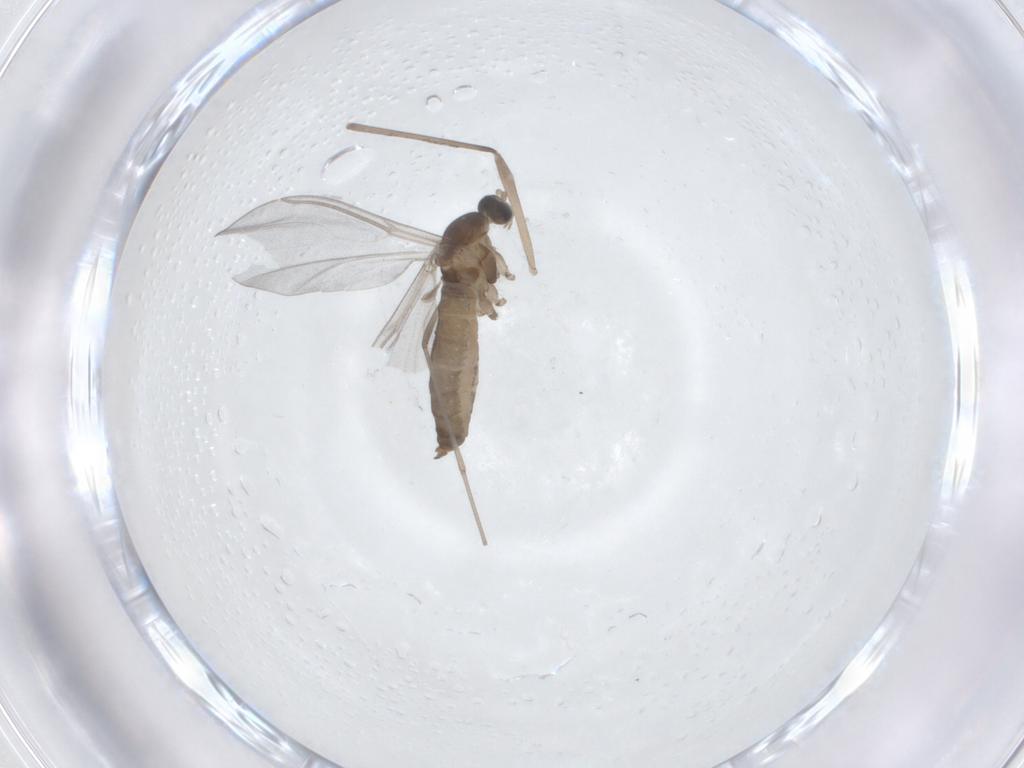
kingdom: Animalia
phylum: Arthropoda
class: Insecta
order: Diptera
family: Cecidomyiidae
